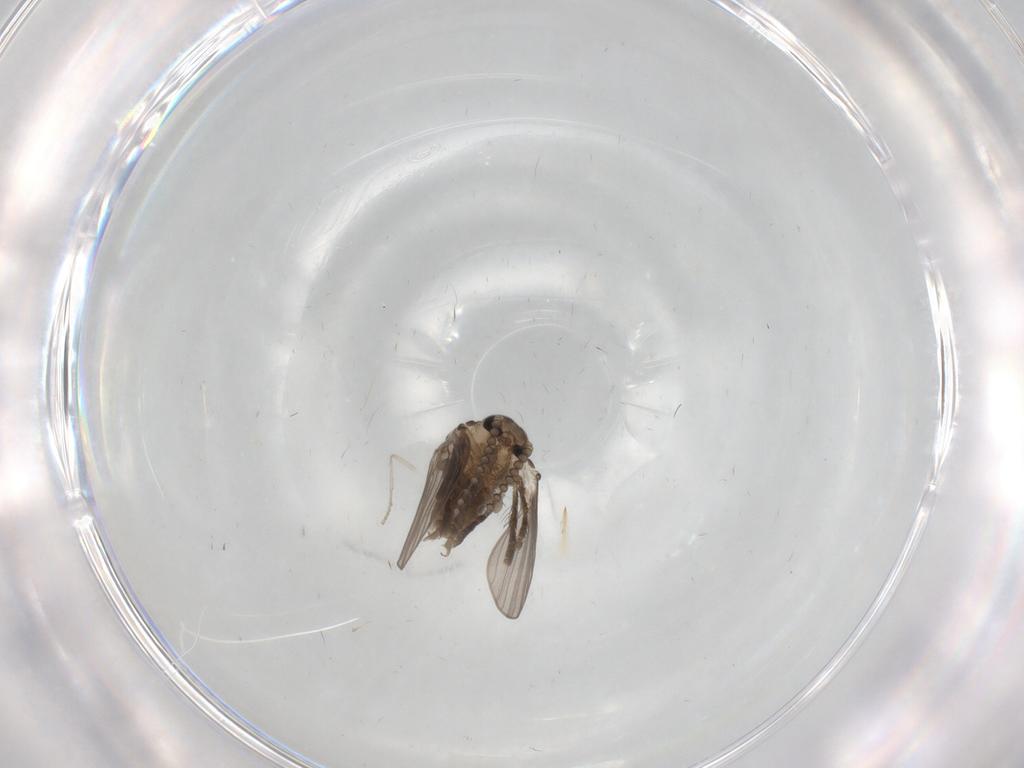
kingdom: Animalia
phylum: Arthropoda
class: Insecta
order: Diptera
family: Psychodidae
